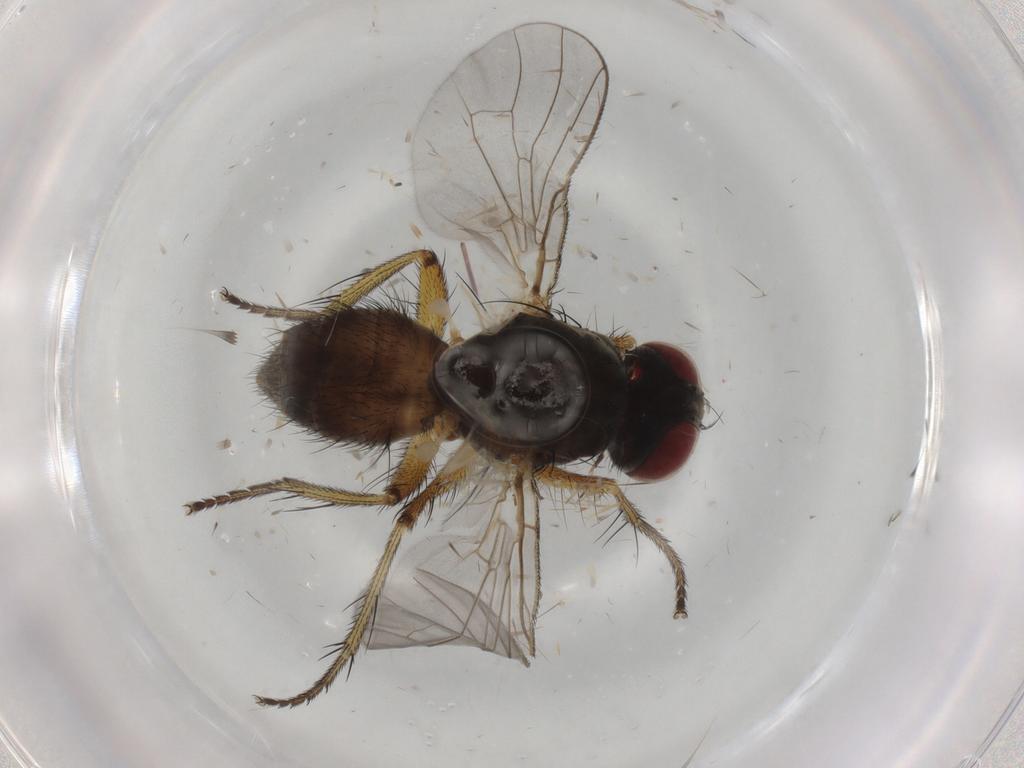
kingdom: Animalia
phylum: Arthropoda
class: Insecta
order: Diptera
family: Muscidae
